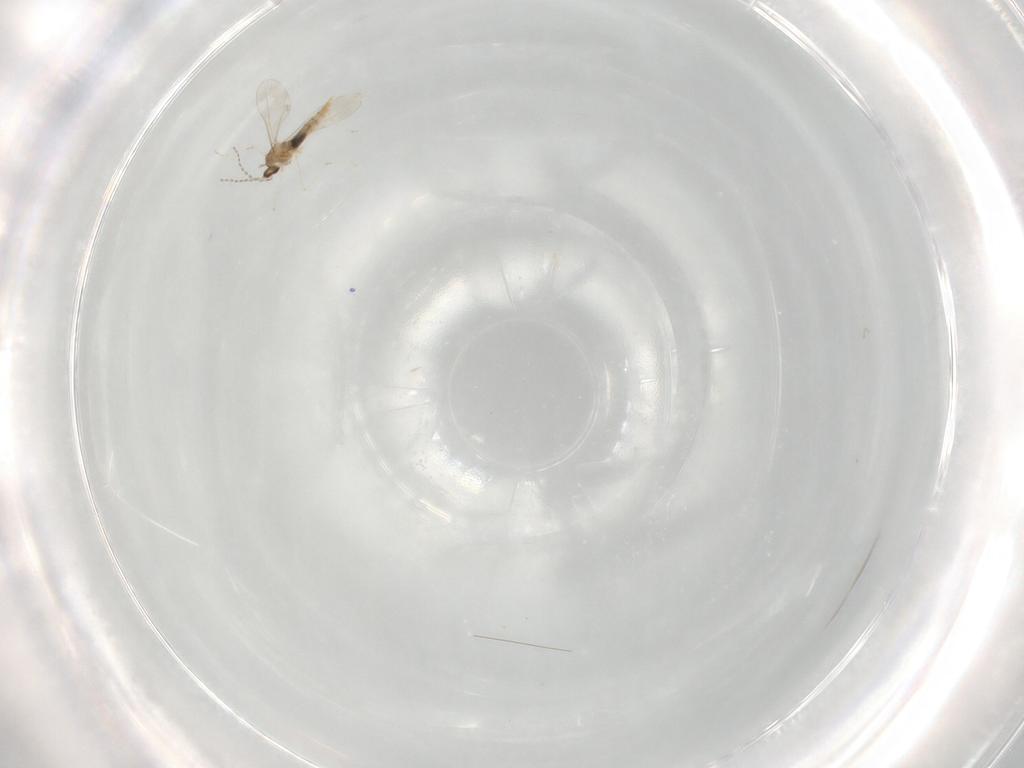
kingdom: Animalia
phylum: Arthropoda
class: Insecta
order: Diptera
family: Cecidomyiidae
